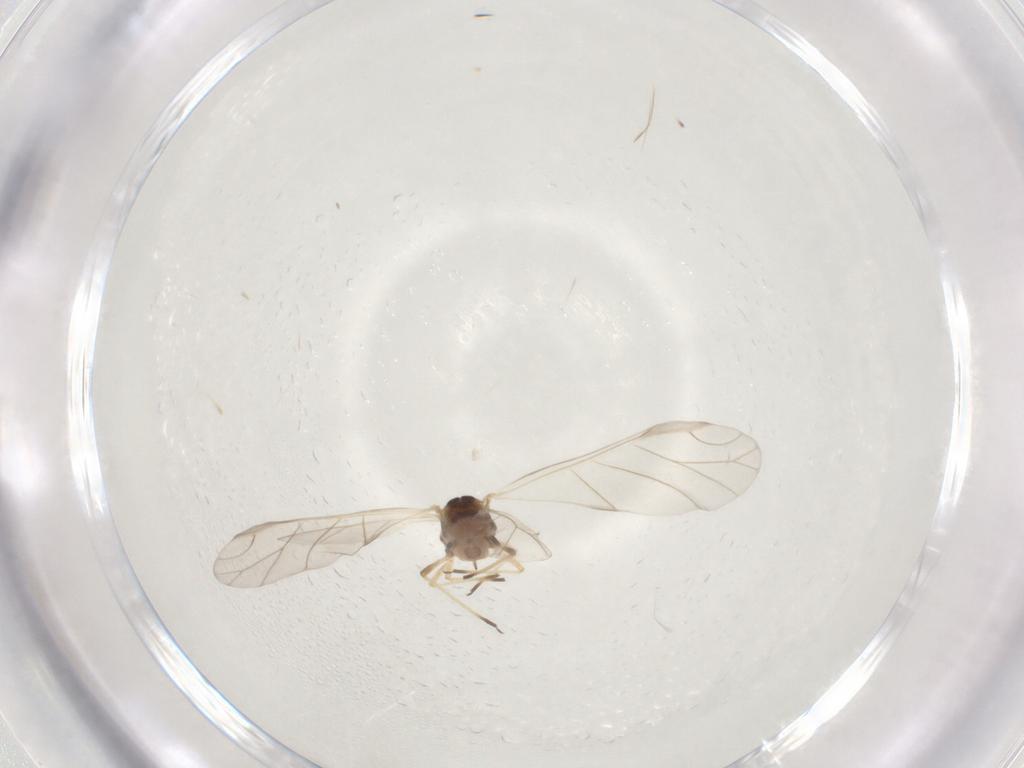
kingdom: Animalia
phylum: Arthropoda
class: Insecta
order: Hemiptera
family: Aphididae
